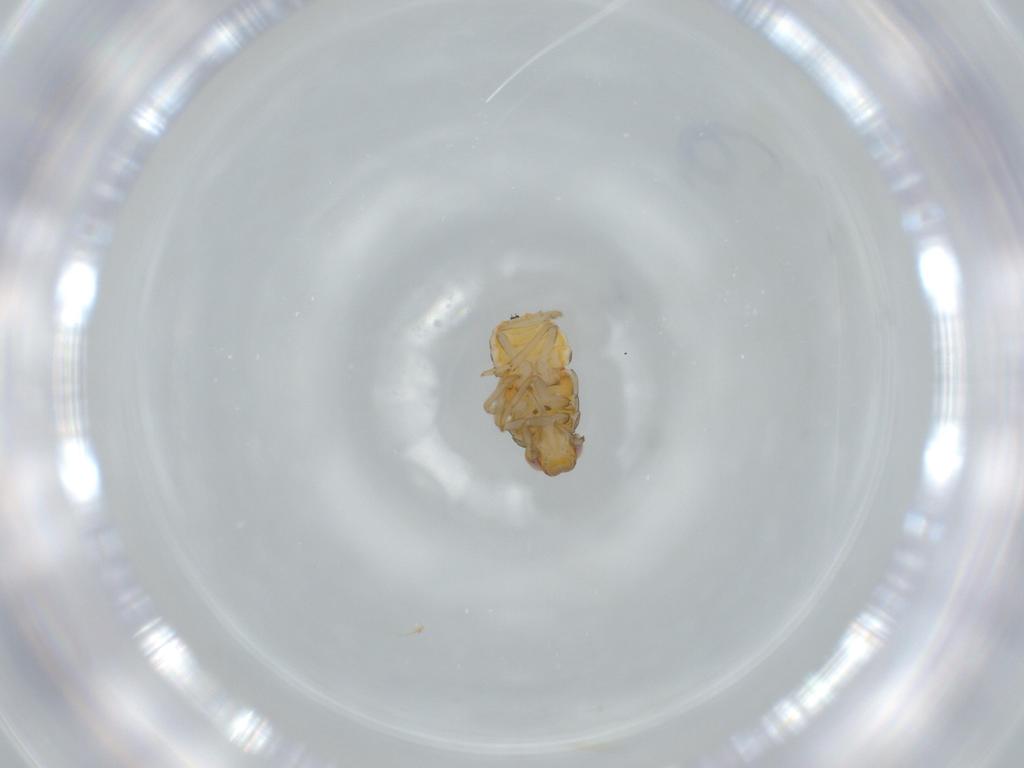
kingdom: Animalia
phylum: Arthropoda
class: Insecta
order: Hemiptera
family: Issidae
